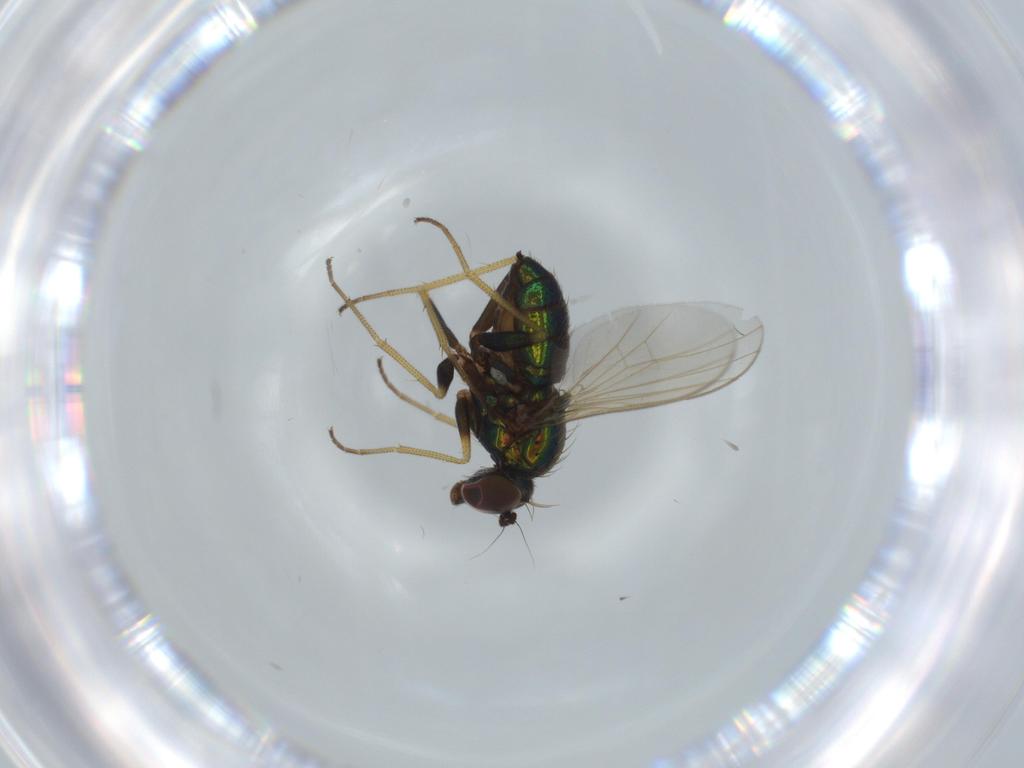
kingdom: Animalia
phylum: Arthropoda
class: Insecta
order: Diptera
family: Dolichopodidae
